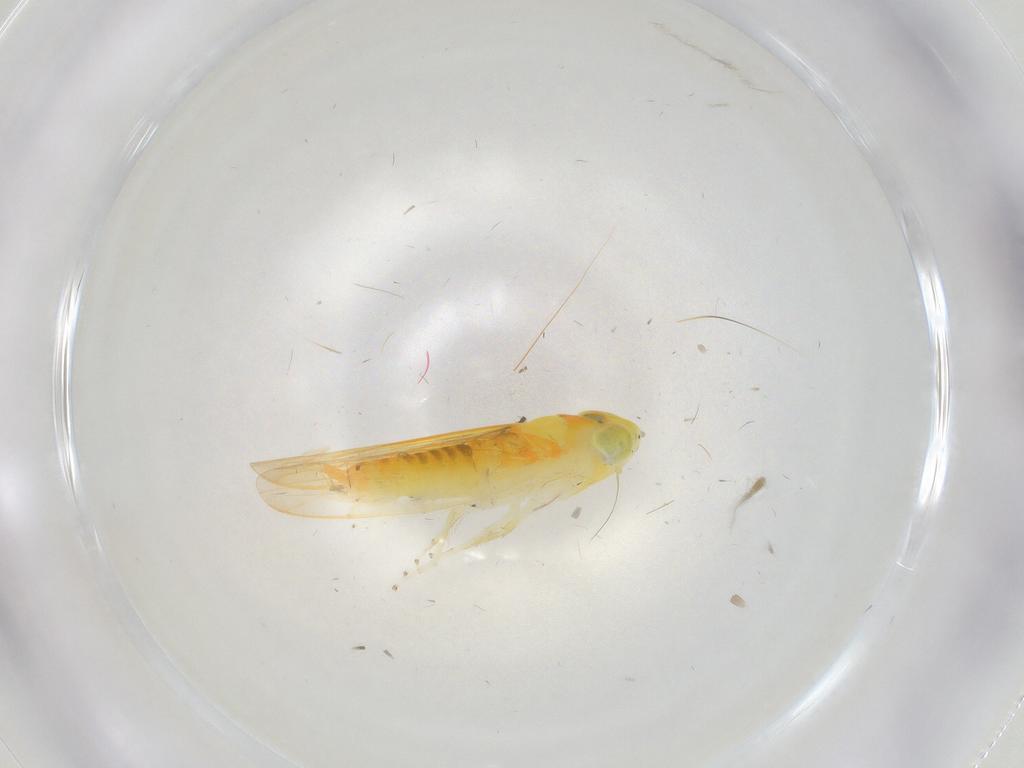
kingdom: Animalia
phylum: Arthropoda
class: Insecta
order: Hemiptera
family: Cicadellidae
